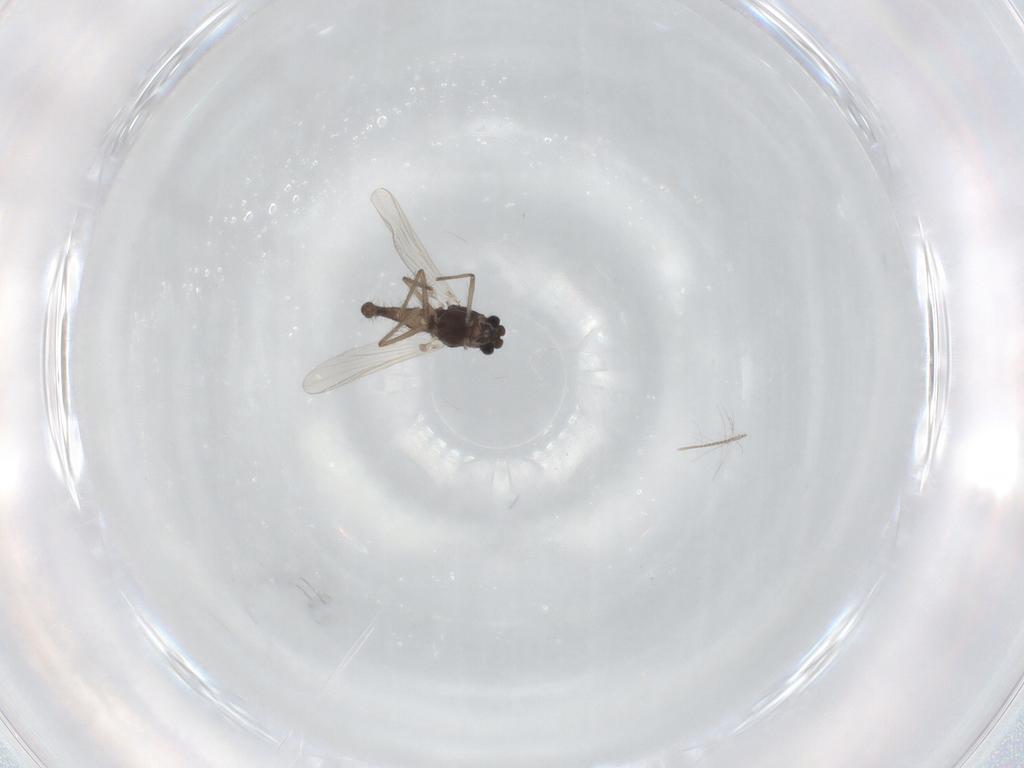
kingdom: Animalia
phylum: Arthropoda
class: Insecta
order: Diptera
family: Chironomidae
